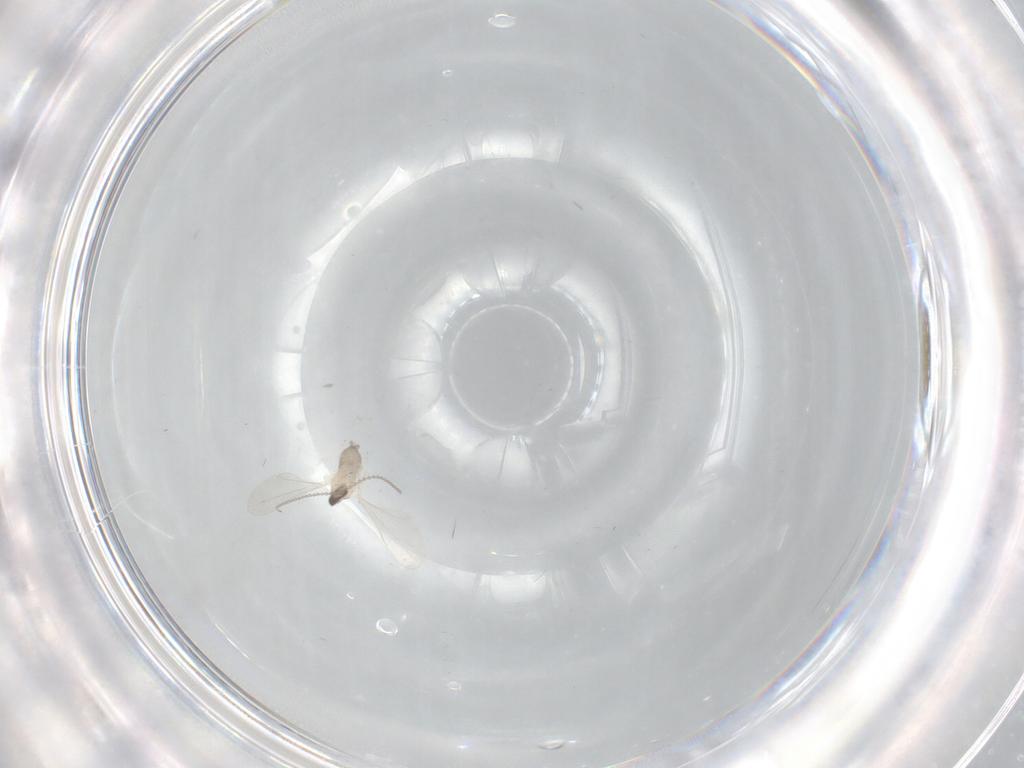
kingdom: Animalia
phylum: Arthropoda
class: Insecta
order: Diptera
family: Cecidomyiidae
